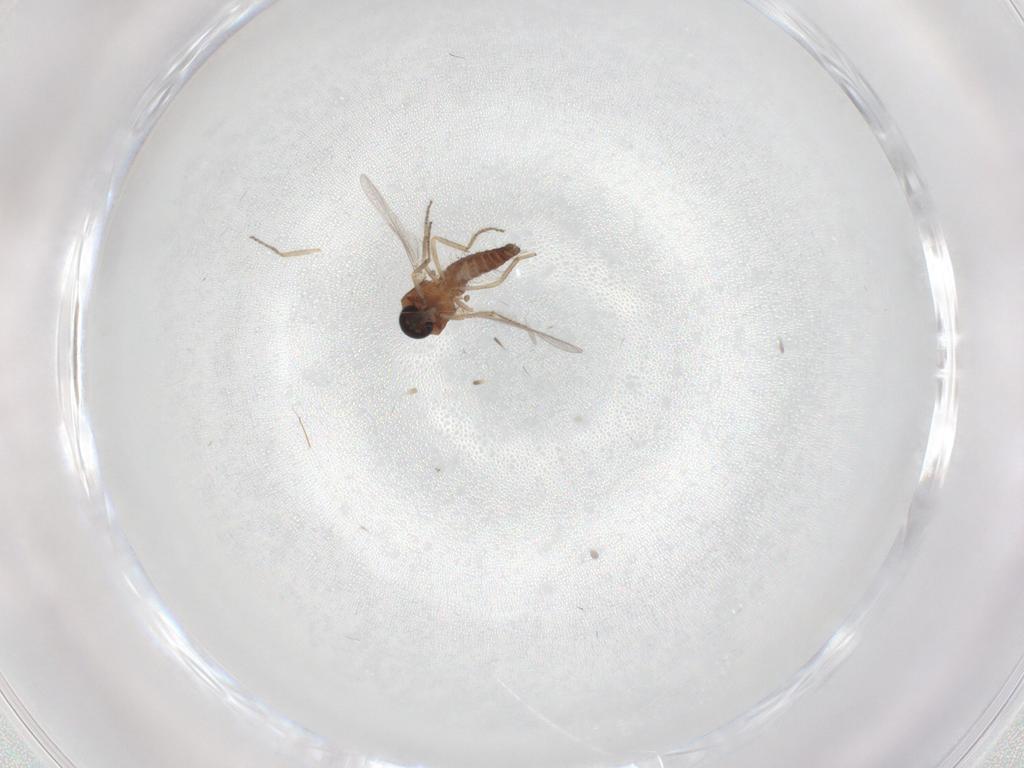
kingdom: Animalia
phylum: Arthropoda
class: Insecta
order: Diptera
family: Ceratopogonidae
